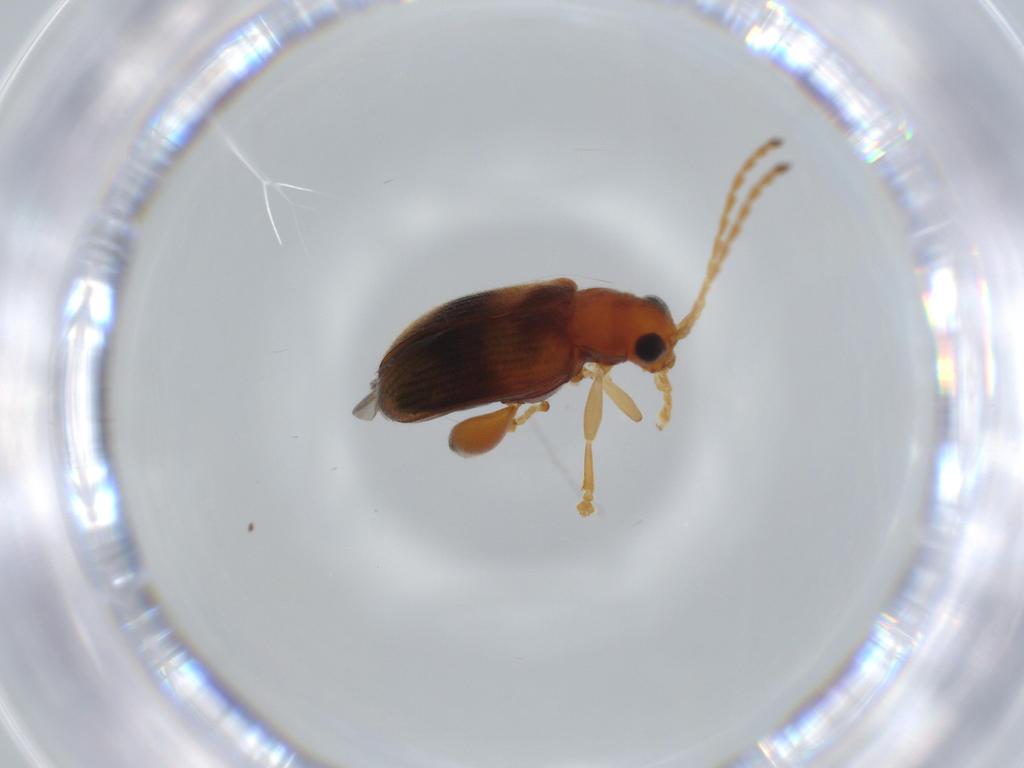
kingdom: Animalia
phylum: Arthropoda
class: Insecta
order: Coleoptera
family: Chrysomelidae
